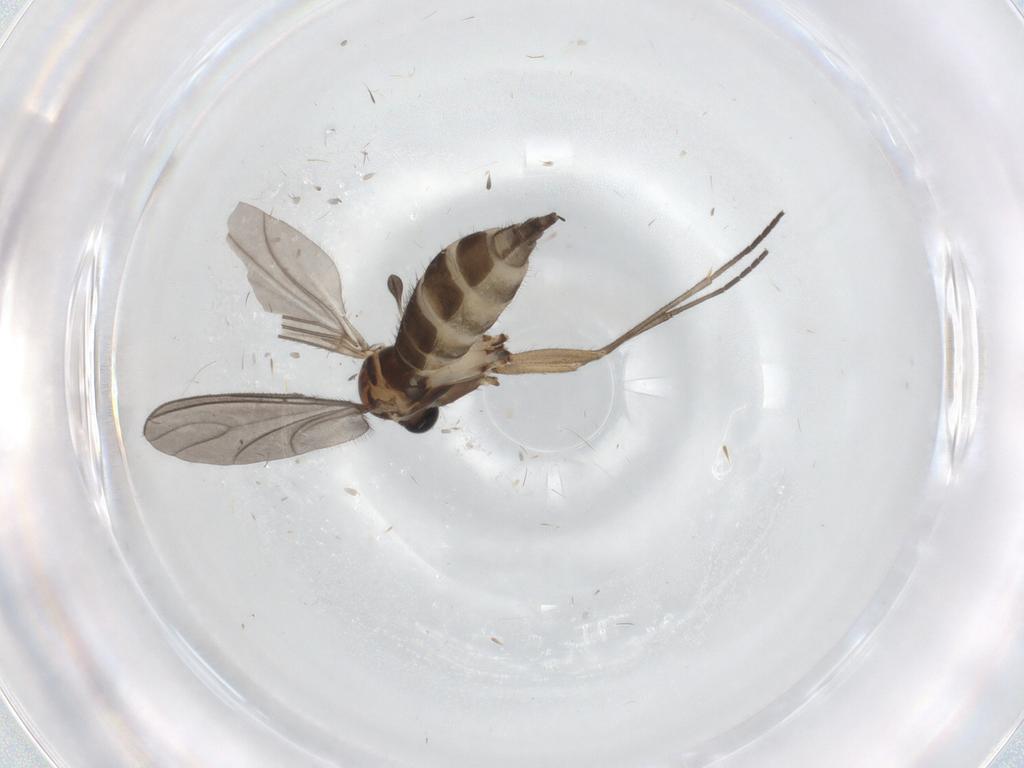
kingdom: Animalia
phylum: Arthropoda
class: Insecta
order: Diptera
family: Sciaridae
